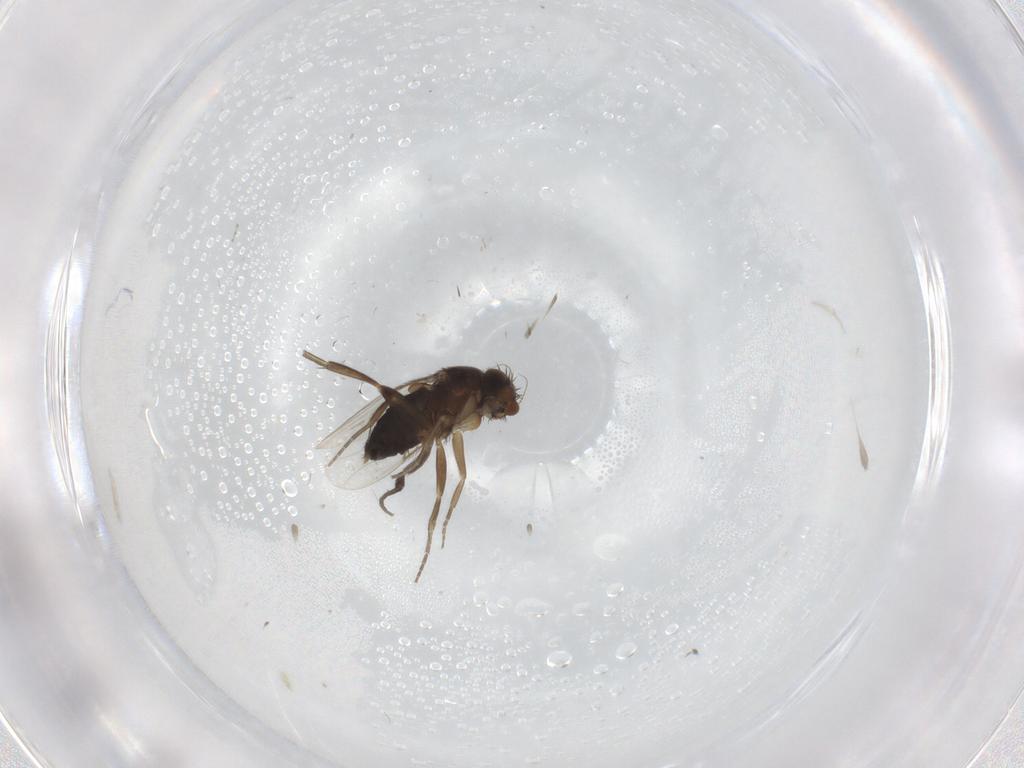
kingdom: Animalia
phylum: Arthropoda
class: Insecta
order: Diptera
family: Phoridae
